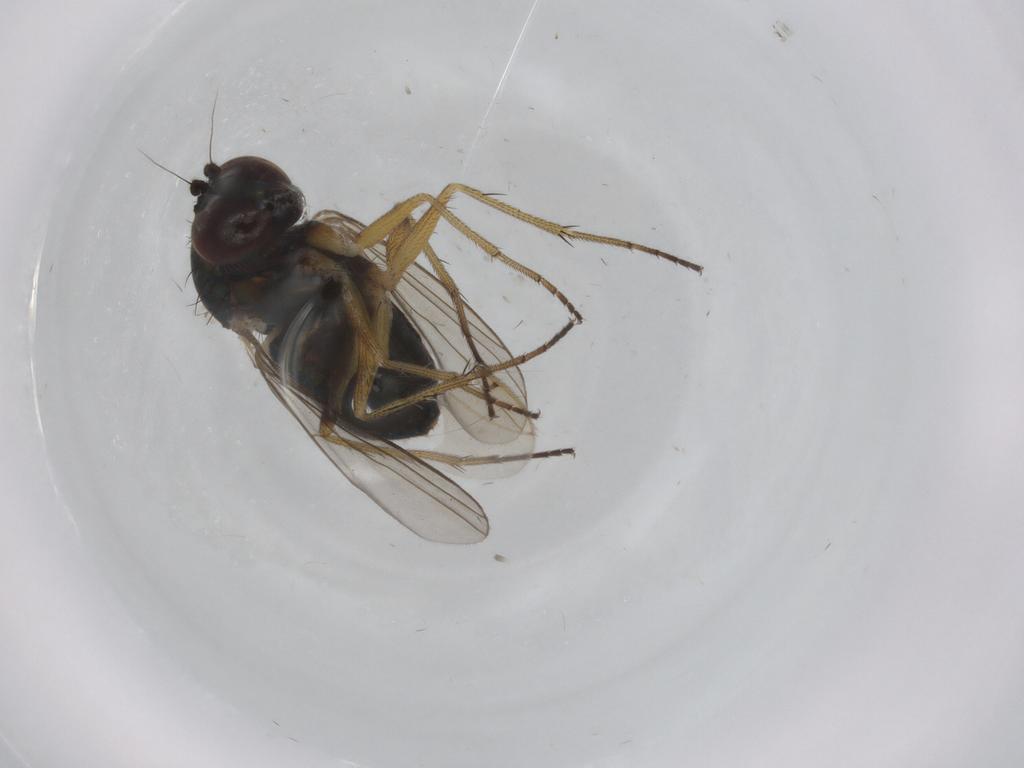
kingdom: Animalia
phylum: Arthropoda
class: Insecta
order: Diptera
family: Sphaeroceridae
